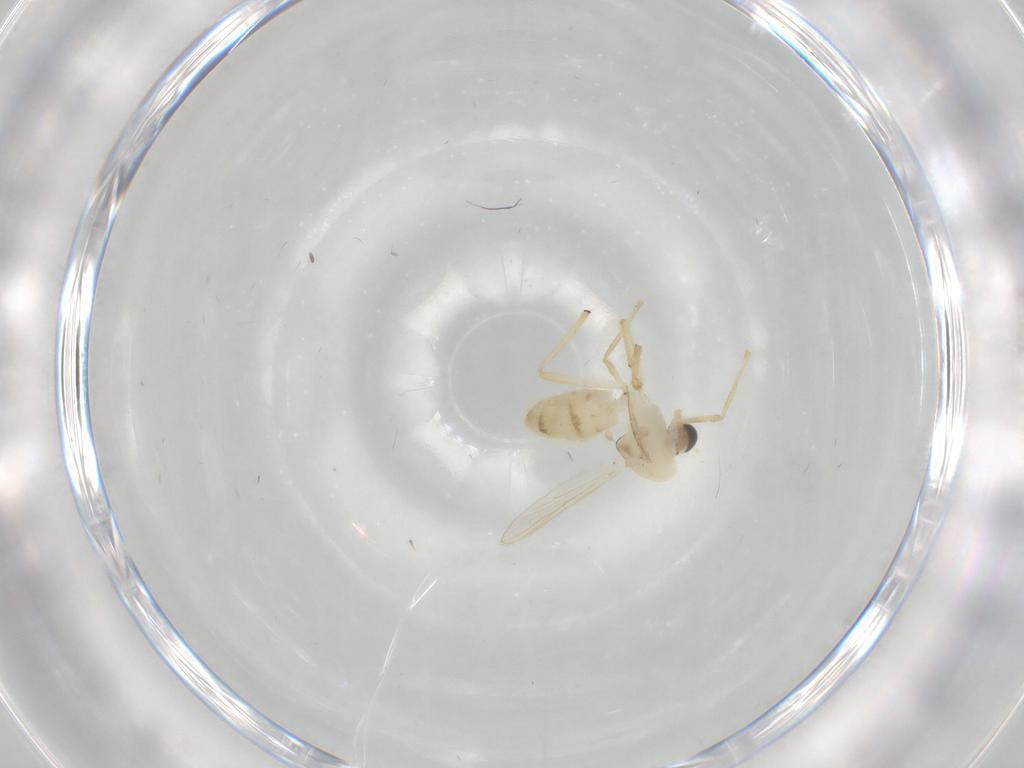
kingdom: Animalia
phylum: Arthropoda
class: Insecta
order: Diptera
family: Chironomidae
